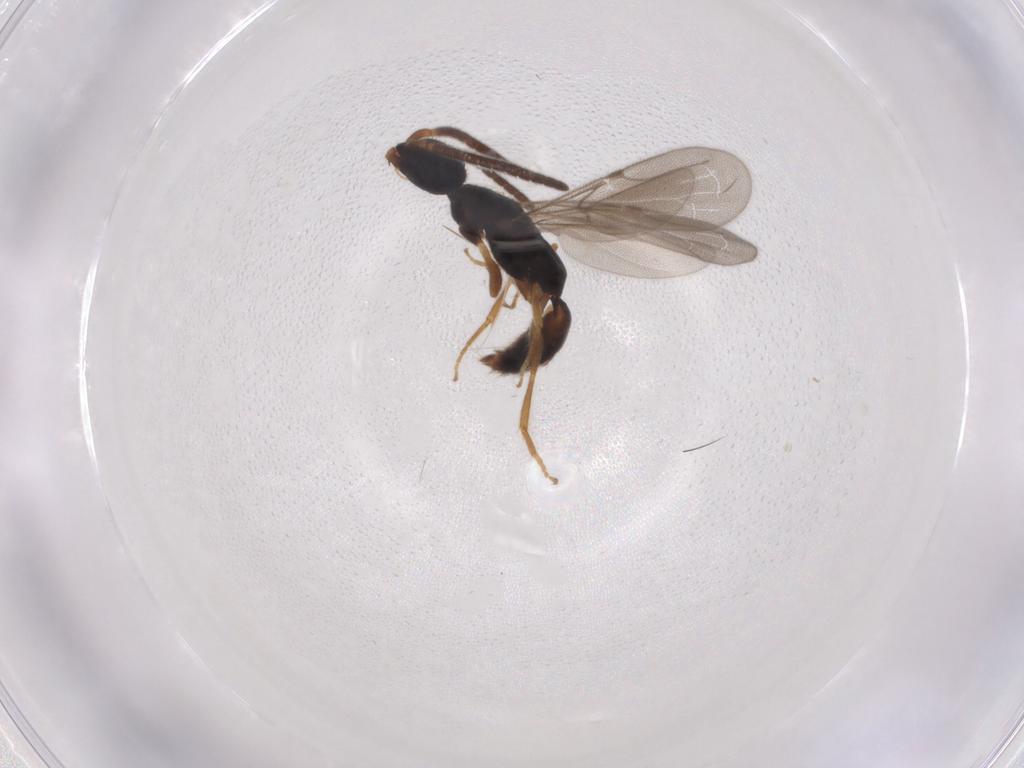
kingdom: Animalia
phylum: Arthropoda
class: Insecta
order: Hymenoptera
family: Bethylidae
